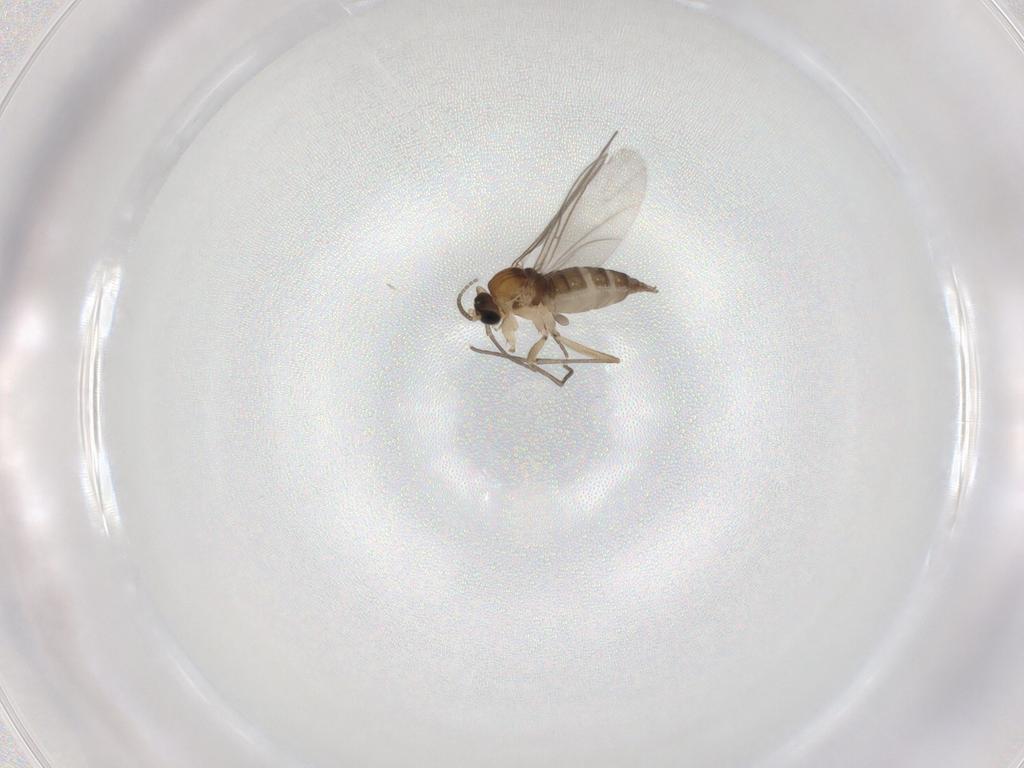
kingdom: Animalia
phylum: Arthropoda
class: Insecta
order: Diptera
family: Sciaridae
